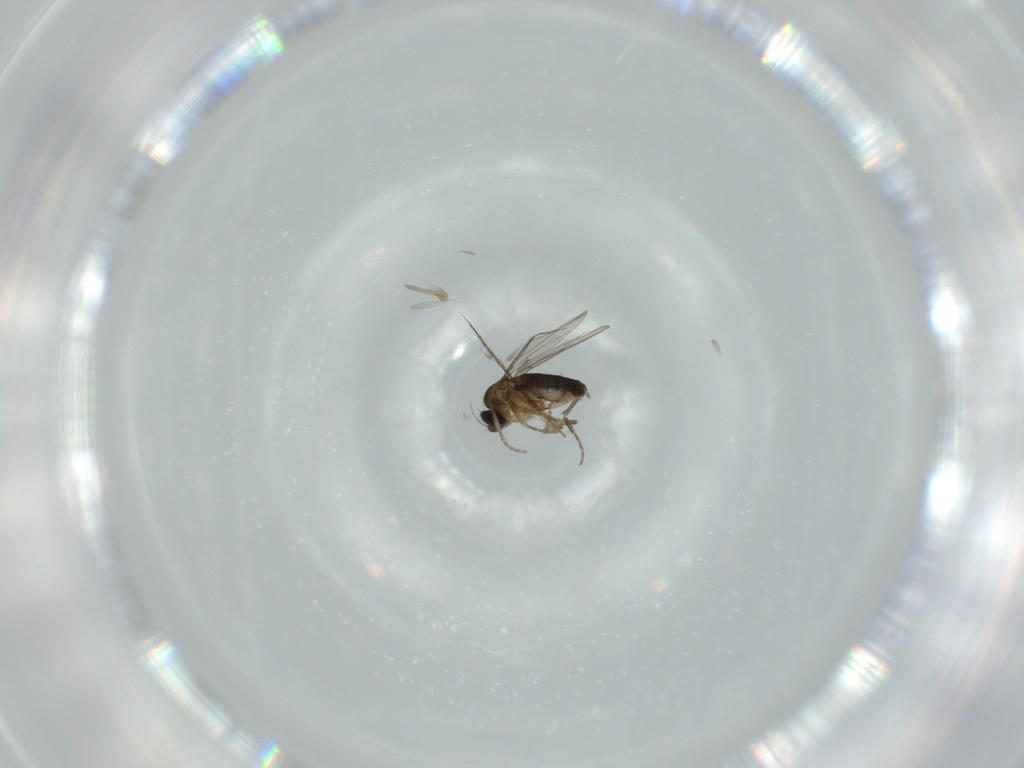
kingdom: Animalia
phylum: Arthropoda
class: Insecta
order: Diptera
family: Phoridae
